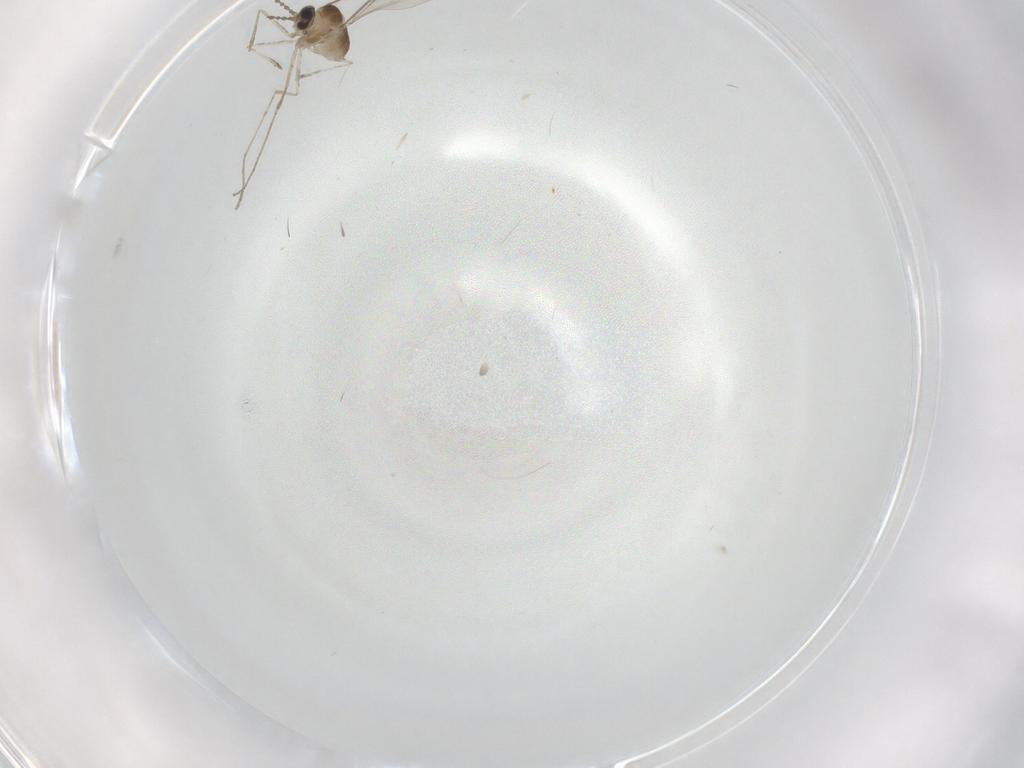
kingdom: Animalia
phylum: Arthropoda
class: Insecta
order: Diptera
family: Cecidomyiidae
